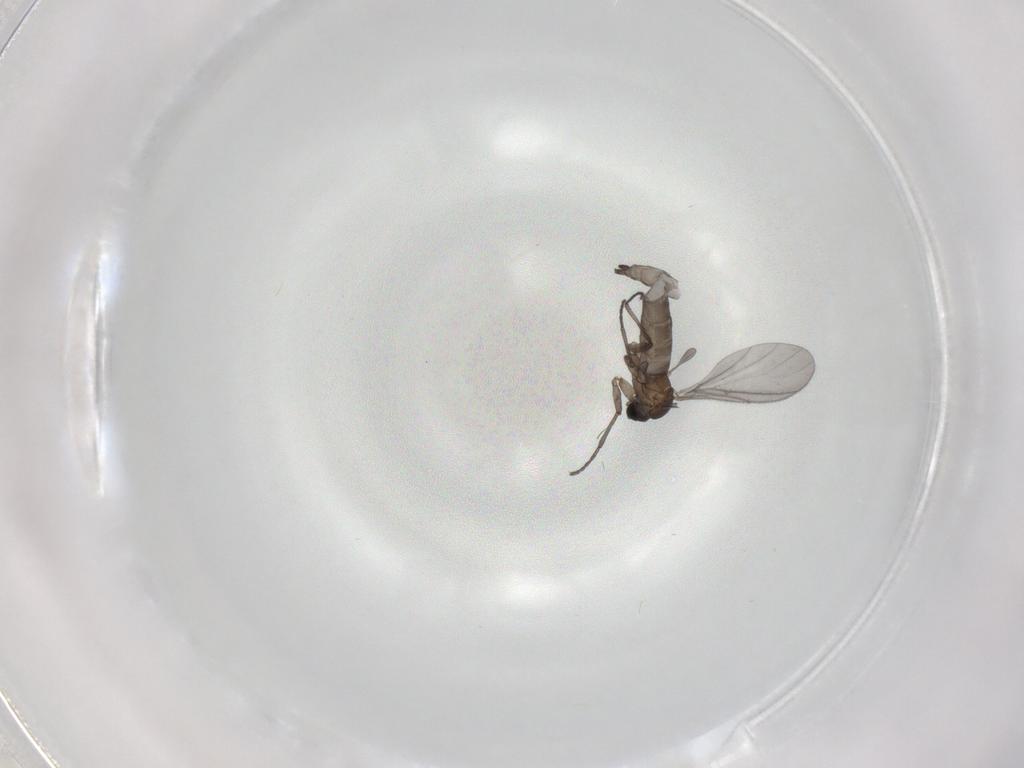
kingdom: Animalia
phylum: Arthropoda
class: Insecta
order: Diptera
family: Sciaridae
